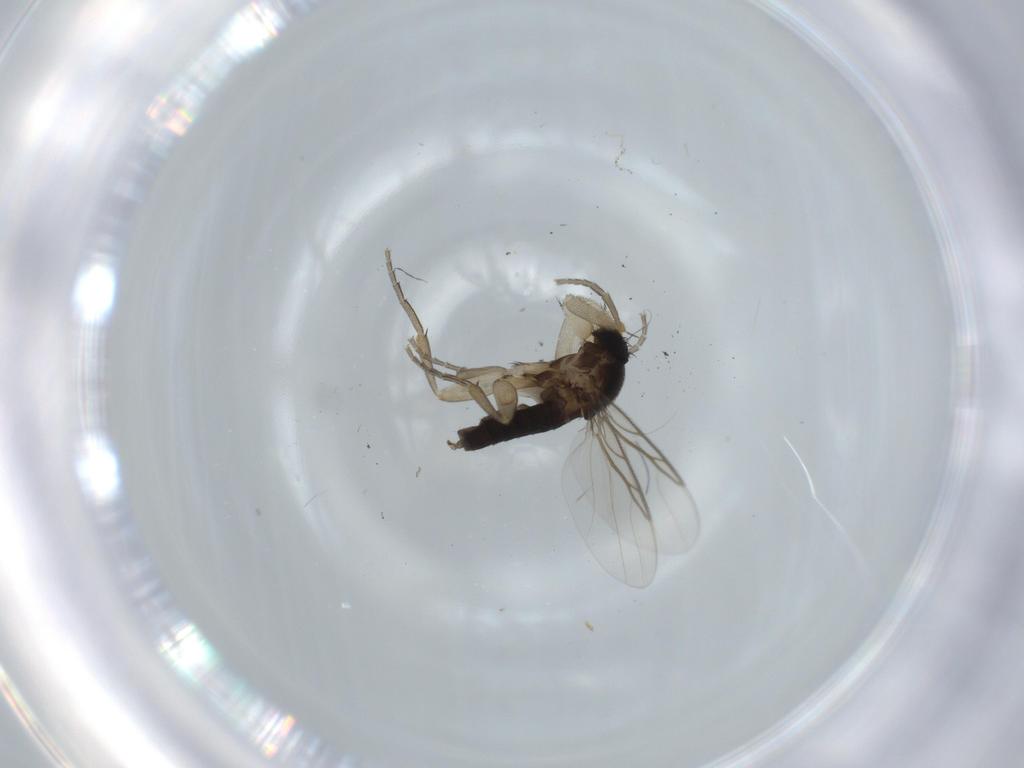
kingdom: Animalia
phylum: Arthropoda
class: Insecta
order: Diptera
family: Phoridae
